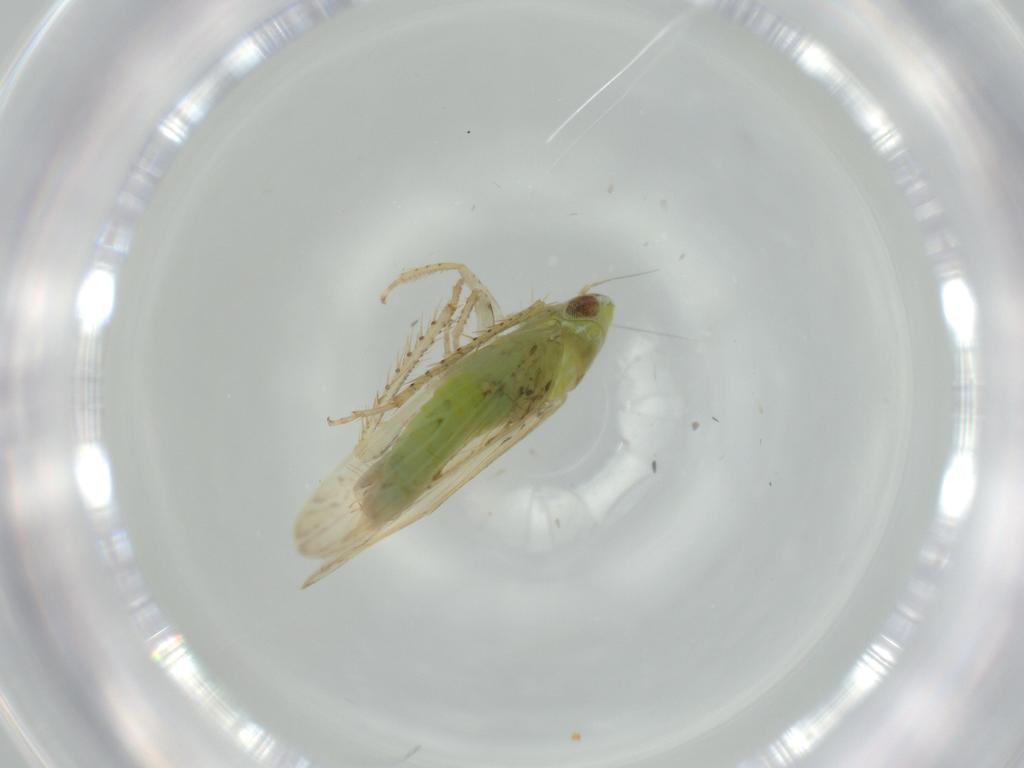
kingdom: Animalia
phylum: Arthropoda
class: Insecta
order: Hemiptera
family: Cicadellidae
